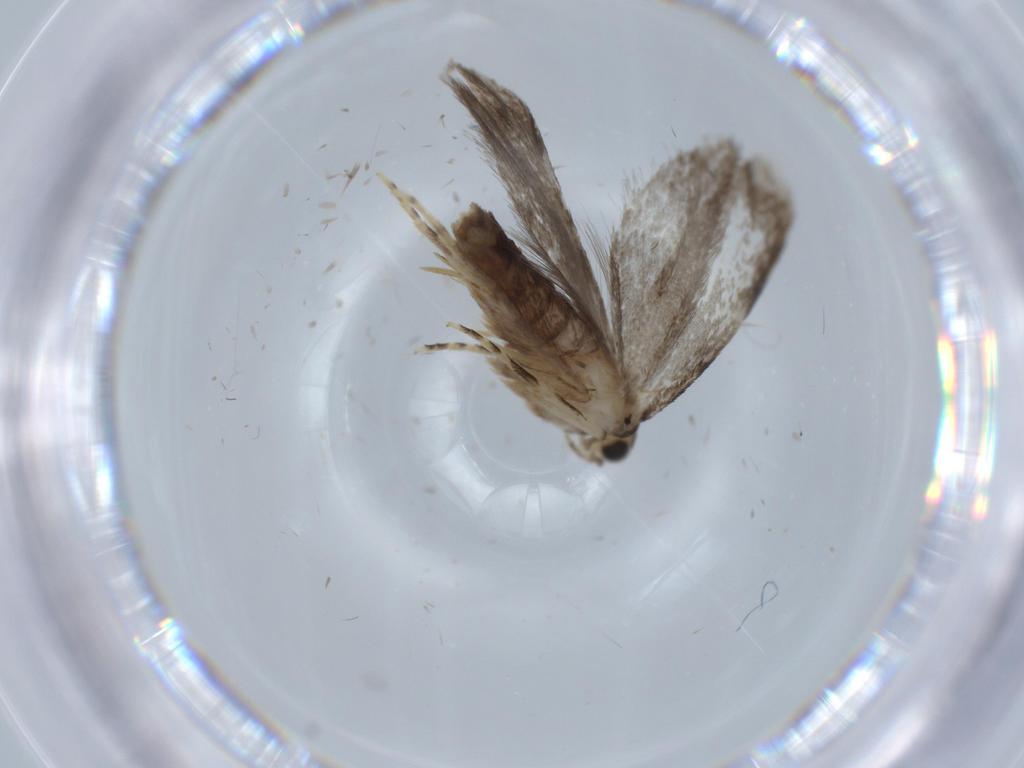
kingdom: Animalia
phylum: Arthropoda
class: Insecta
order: Lepidoptera
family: Tineidae
